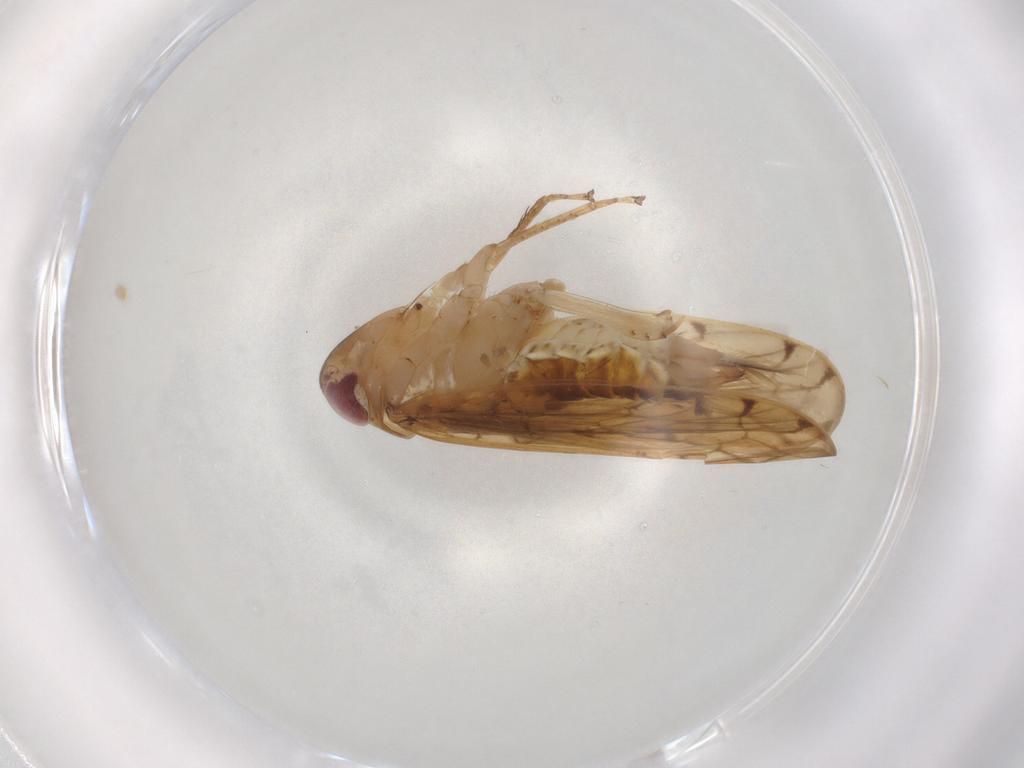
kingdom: Animalia
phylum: Arthropoda
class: Insecta
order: Hemiptera
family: Cicadellidae
